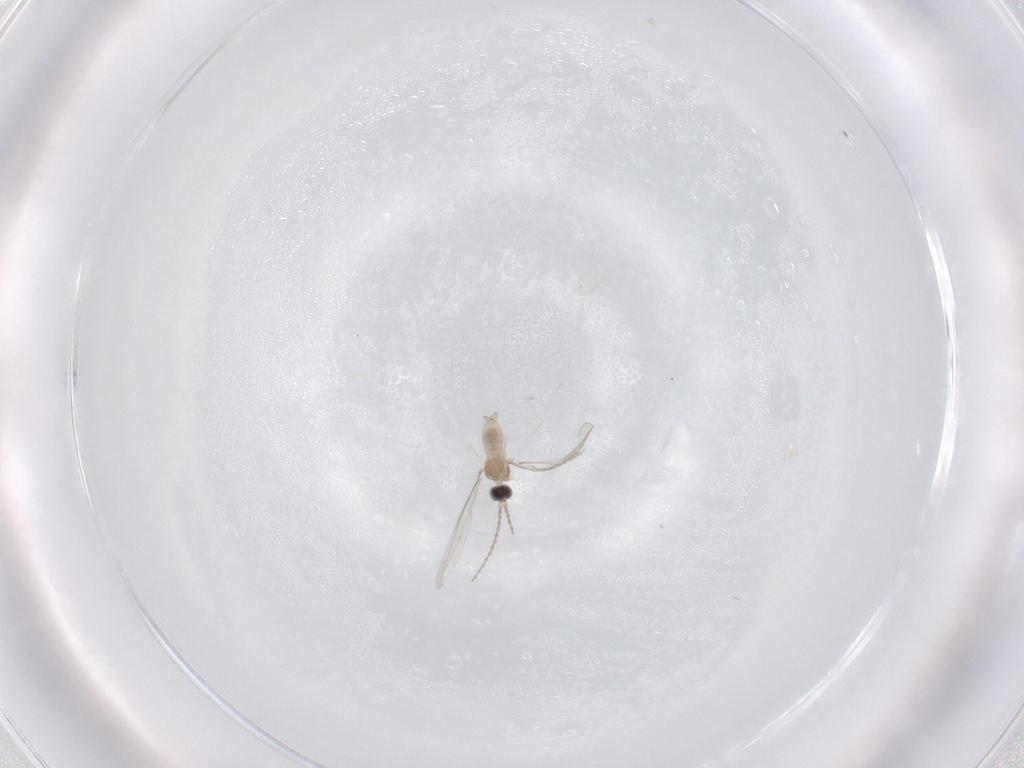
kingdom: Animalia
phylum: Arthropoda
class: Insecta
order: Diptera
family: Cecidomyiidae
